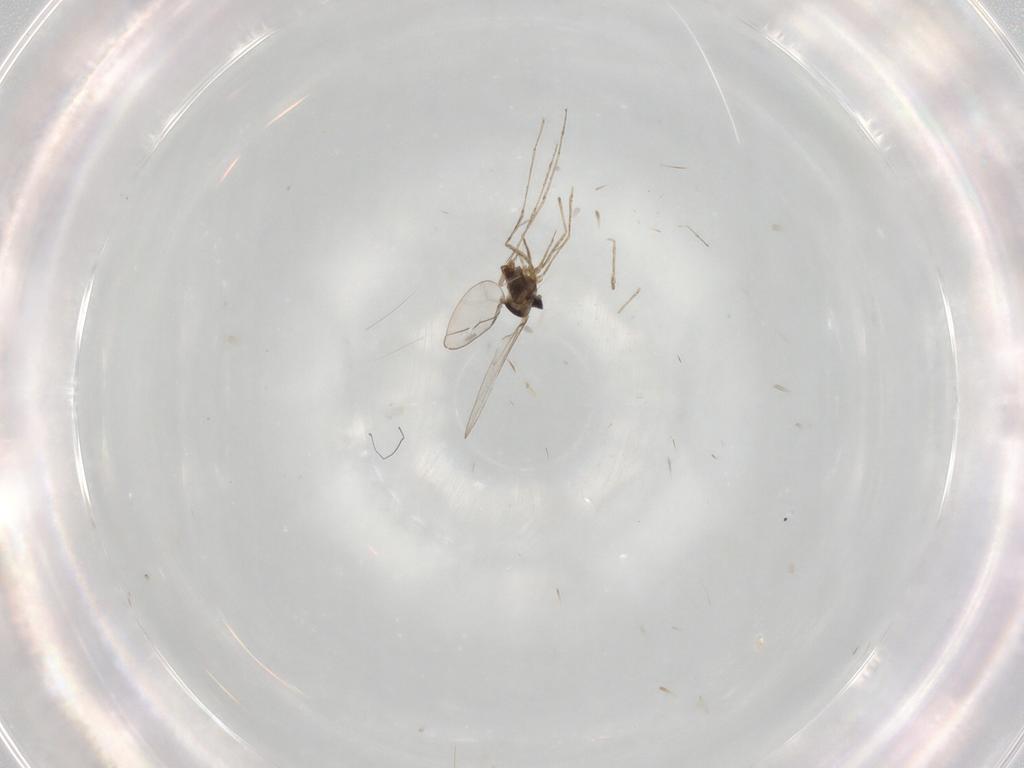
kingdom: Animalia
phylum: Arthropoda
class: Insecta
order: Diptera
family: Cecidomyiidae
